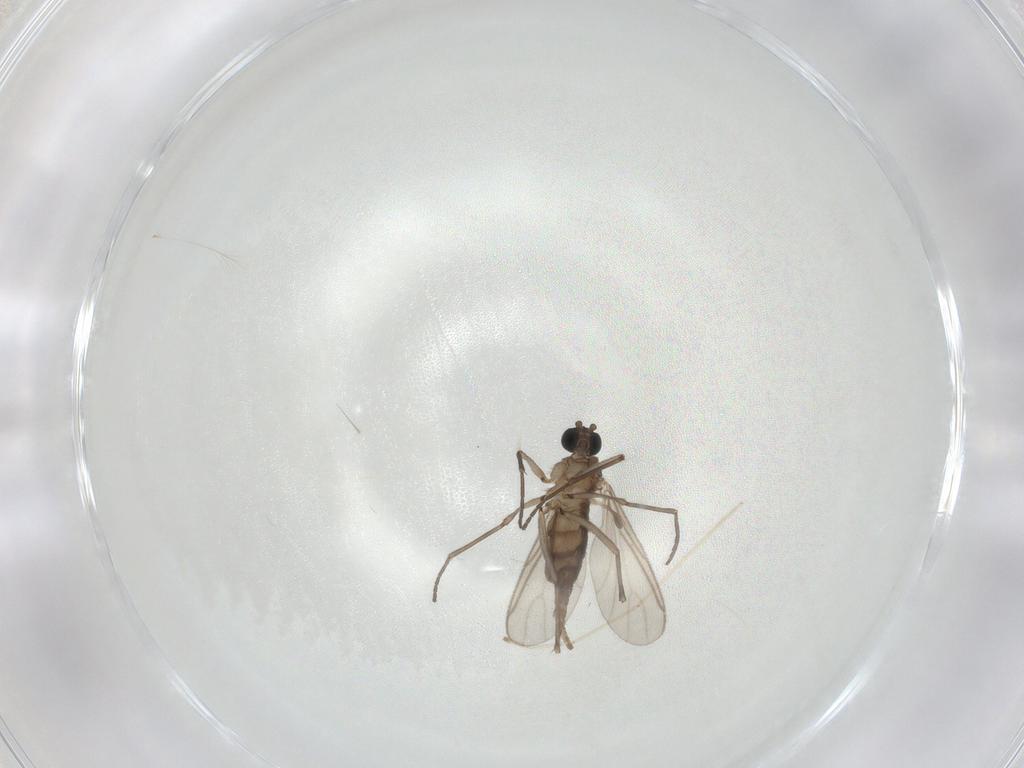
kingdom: Animalia
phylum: Arthropoda
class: Insecta
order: Diptera
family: Sciaridae
